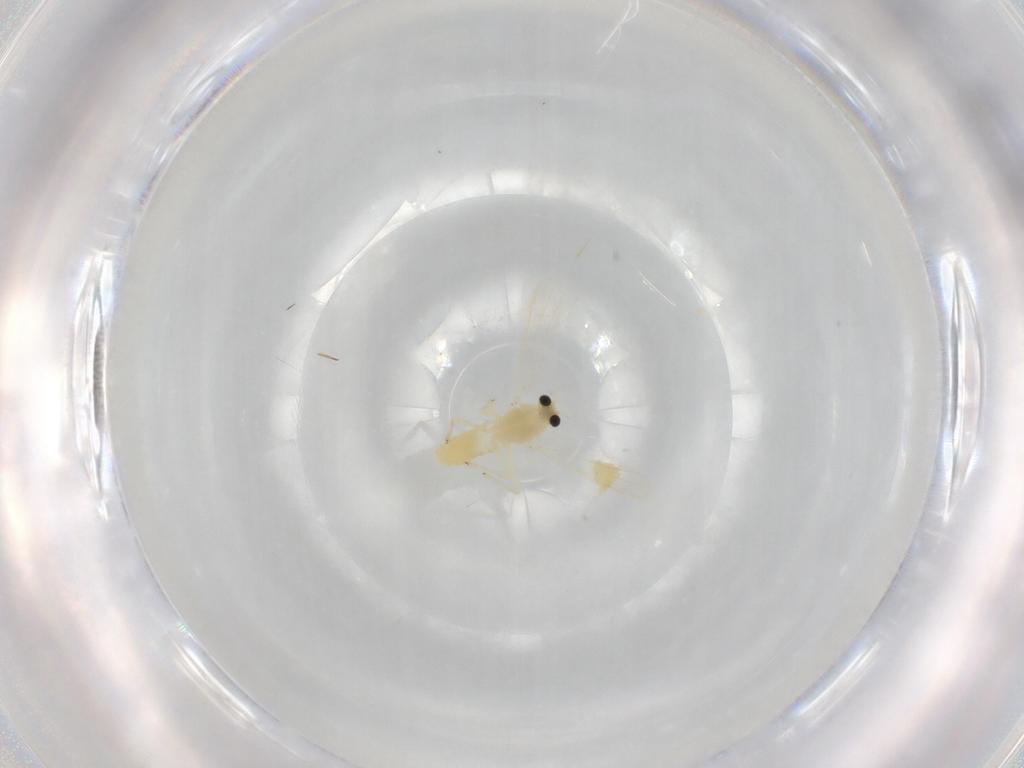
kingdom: Animalia
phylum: Arthropoda
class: Insecta
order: Diptera
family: Chironomidae
